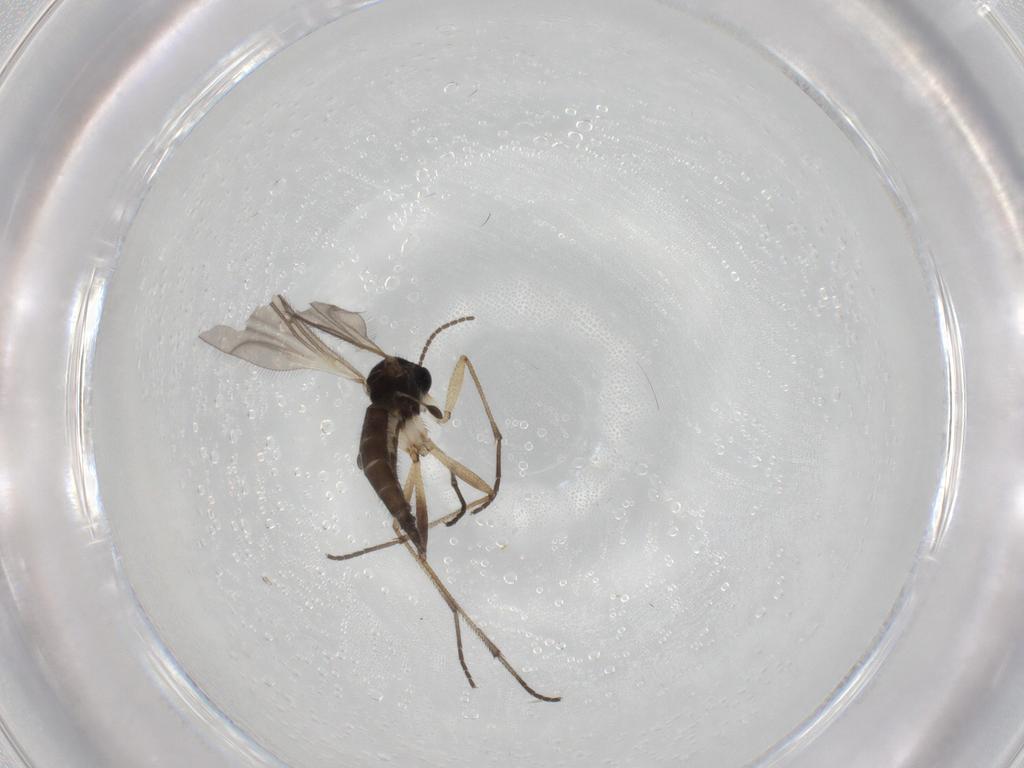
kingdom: Animalia
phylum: Arthropoda
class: Insecta
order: Diptera
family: Sciaridae
